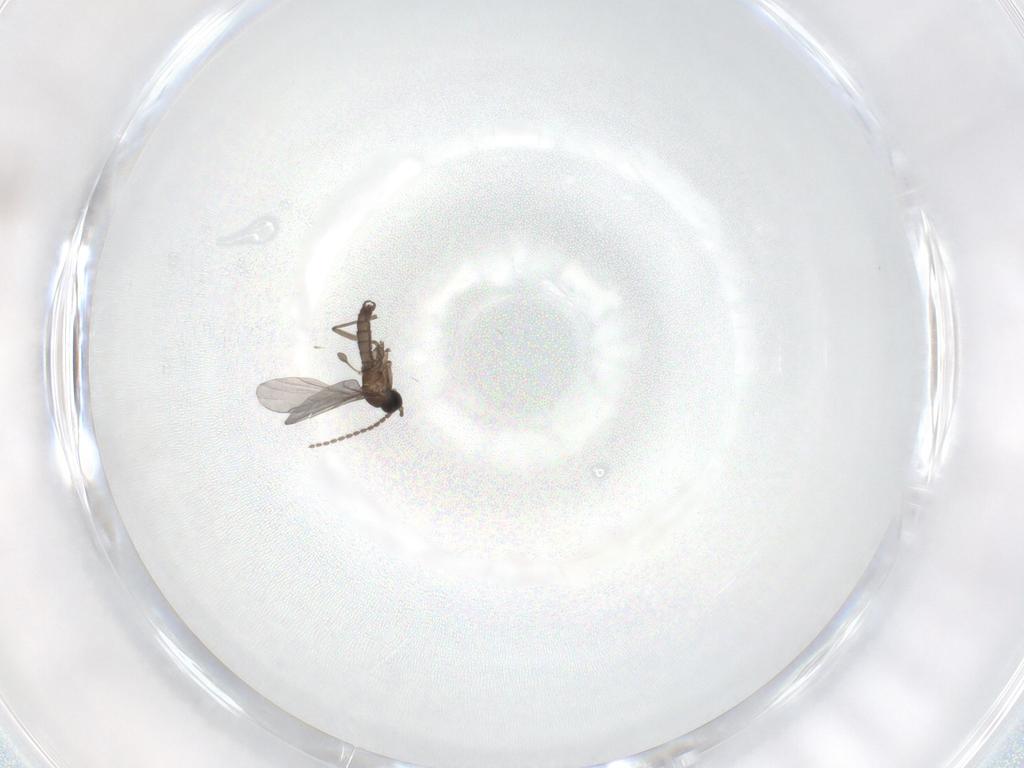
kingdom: Animalia
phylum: Arthropoda
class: Insecta
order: Diptera
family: Sciaridae
